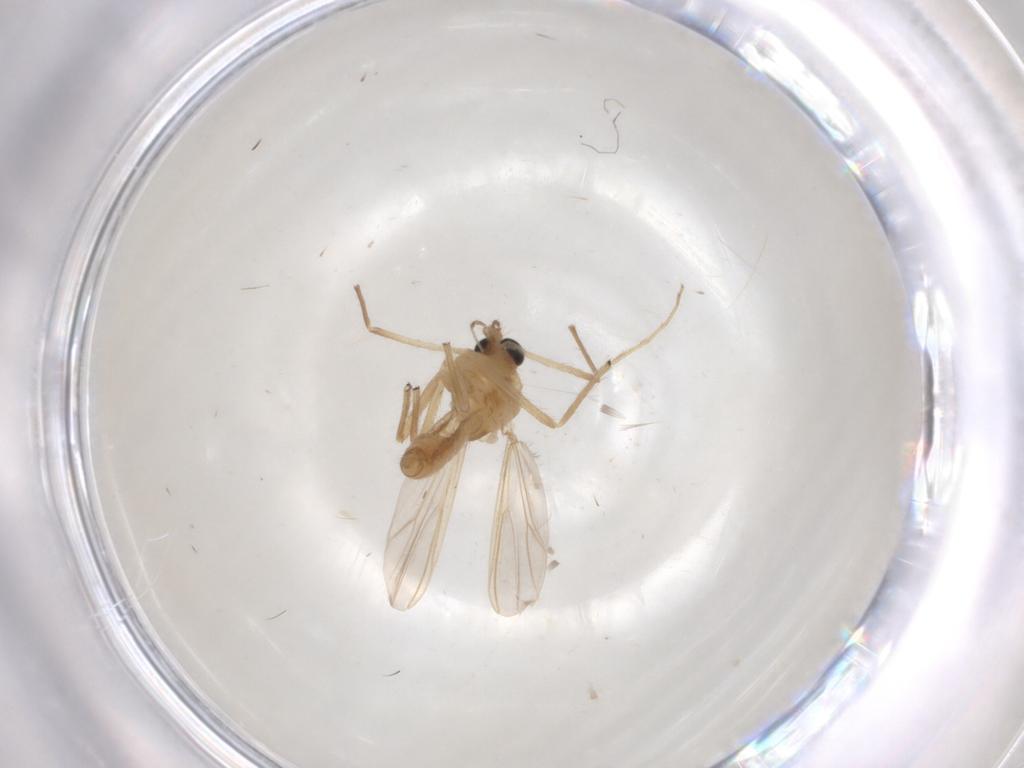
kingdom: Animalia
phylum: Arthropoda
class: Insecta
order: Diptera
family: Chironomidae
